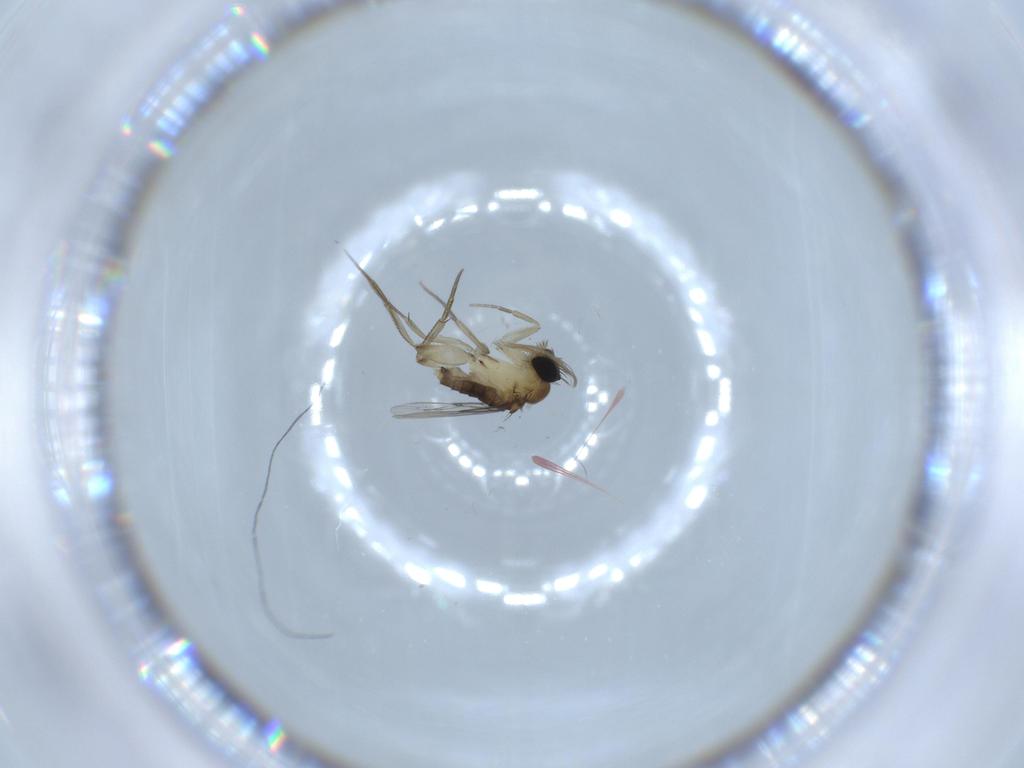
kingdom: Animalia
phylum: Arthropoda
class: Insecta
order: Diptera
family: Phoridae
